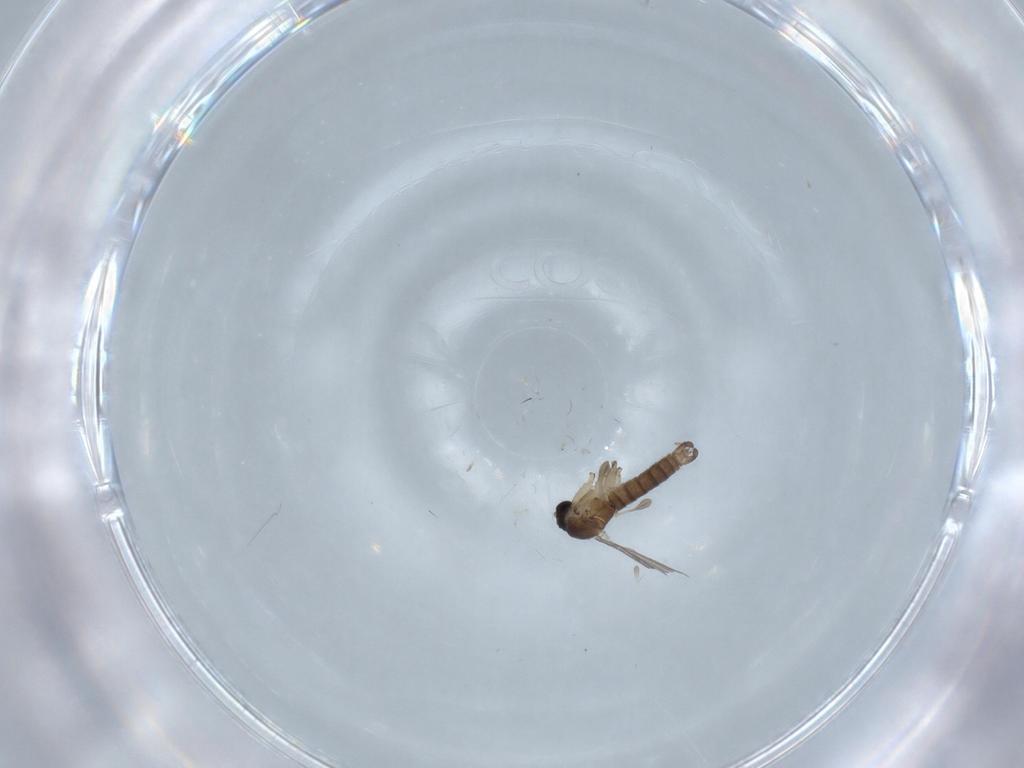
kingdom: Animalia
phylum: Arthropoda
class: Insecta
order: Diptera
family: Sciaridae
